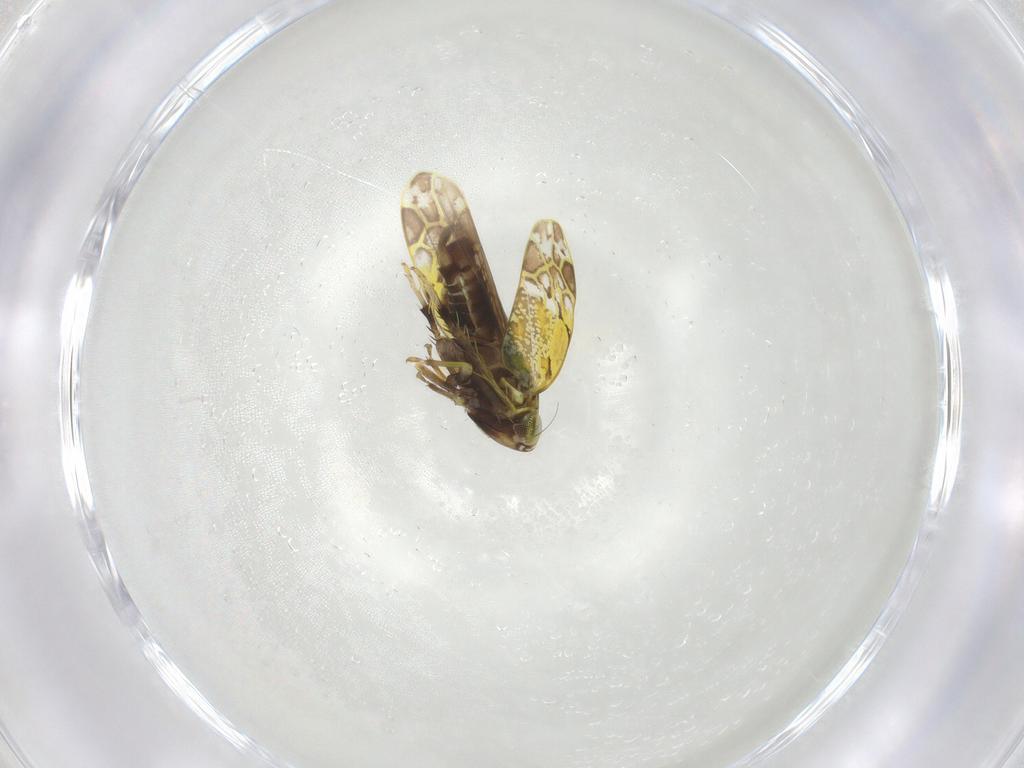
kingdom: Animalia
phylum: Arthropoda
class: Insecta
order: Hemiptera
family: Cicadellidae
